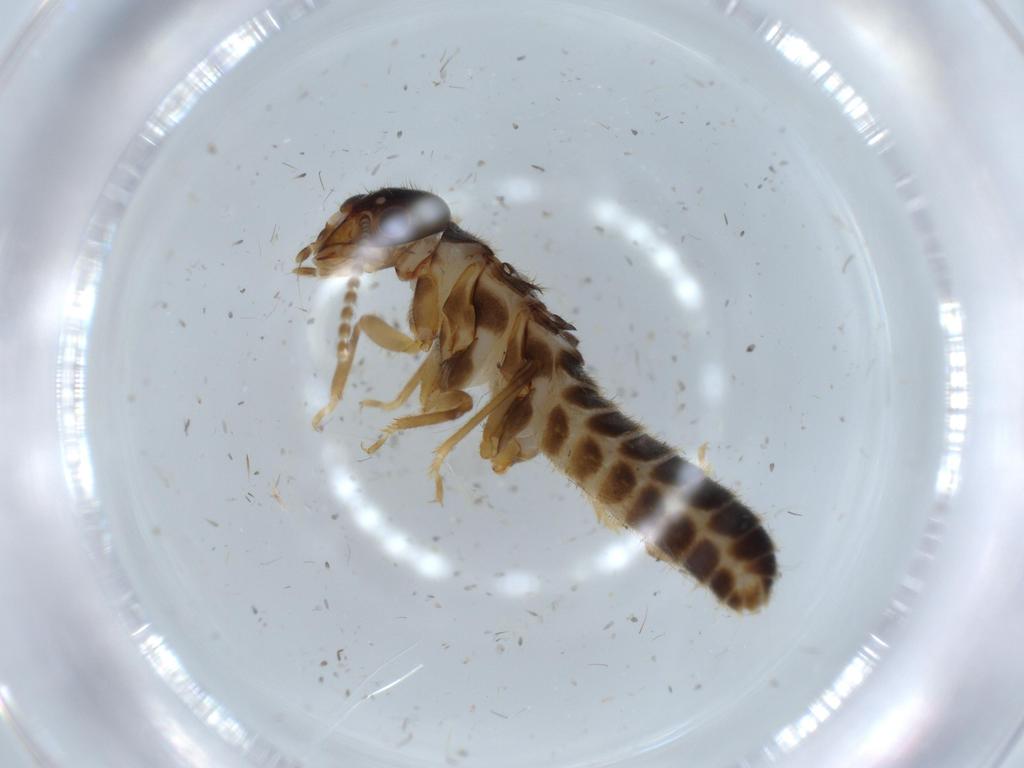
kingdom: Animalia
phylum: Arthropoda
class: Insecta
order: Blattodea
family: Termitidae
